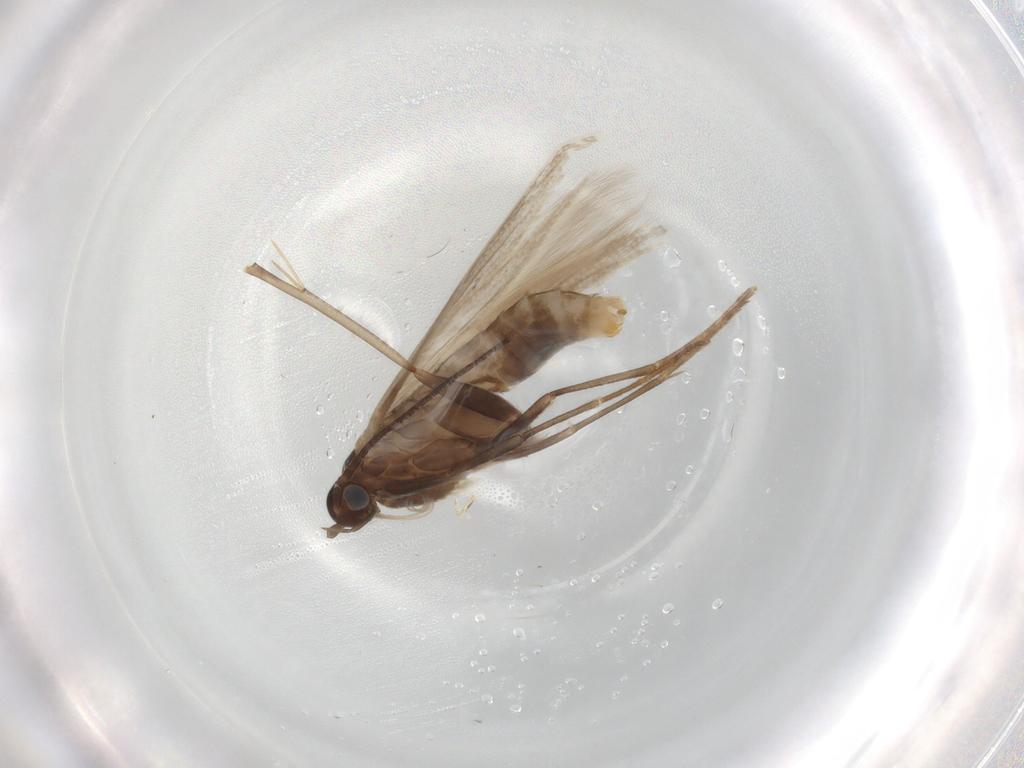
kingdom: Animalia
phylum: Arthropoda
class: Insecta
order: Lepidoptera
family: Coleophoridae
